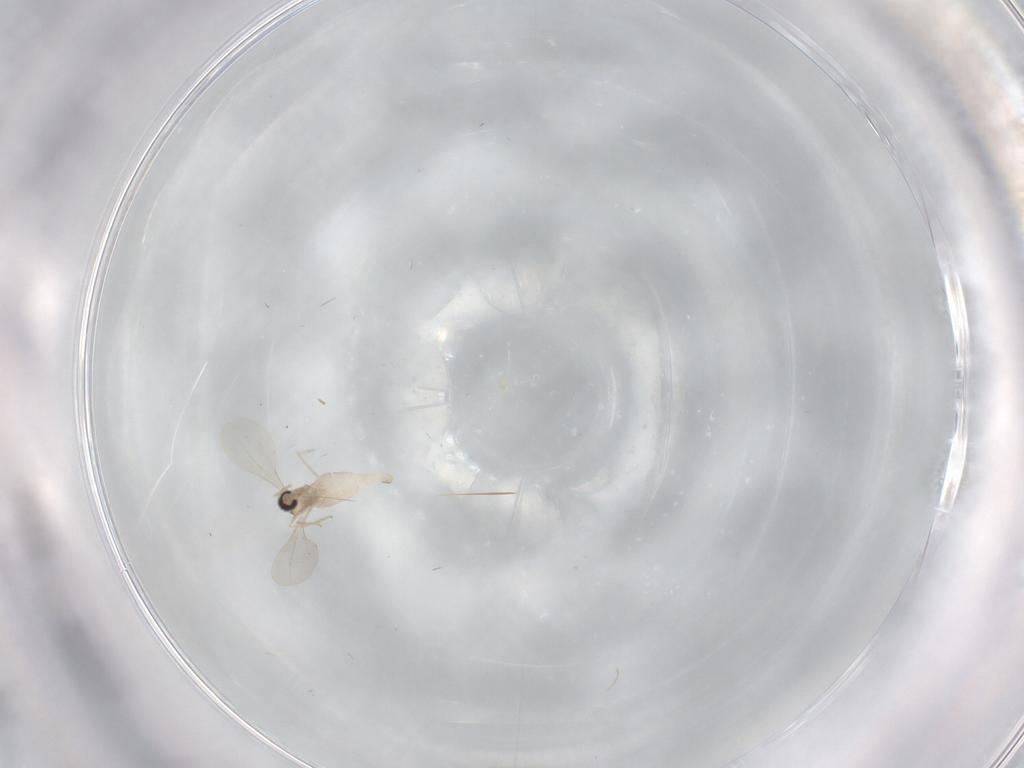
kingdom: Animalia
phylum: Arthropoda
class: Insecta
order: Diptera
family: Cecidomyiidae
